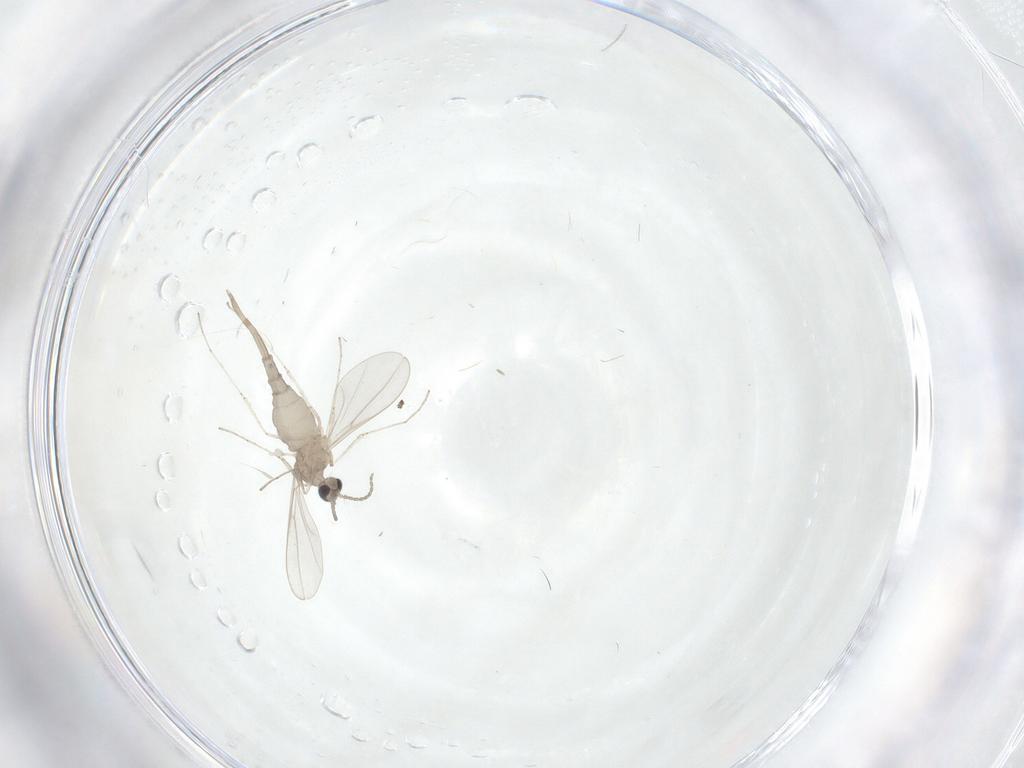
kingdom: Animalia
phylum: Arthropoda
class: Insecta
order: Diptera
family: Cecidomyiidae
